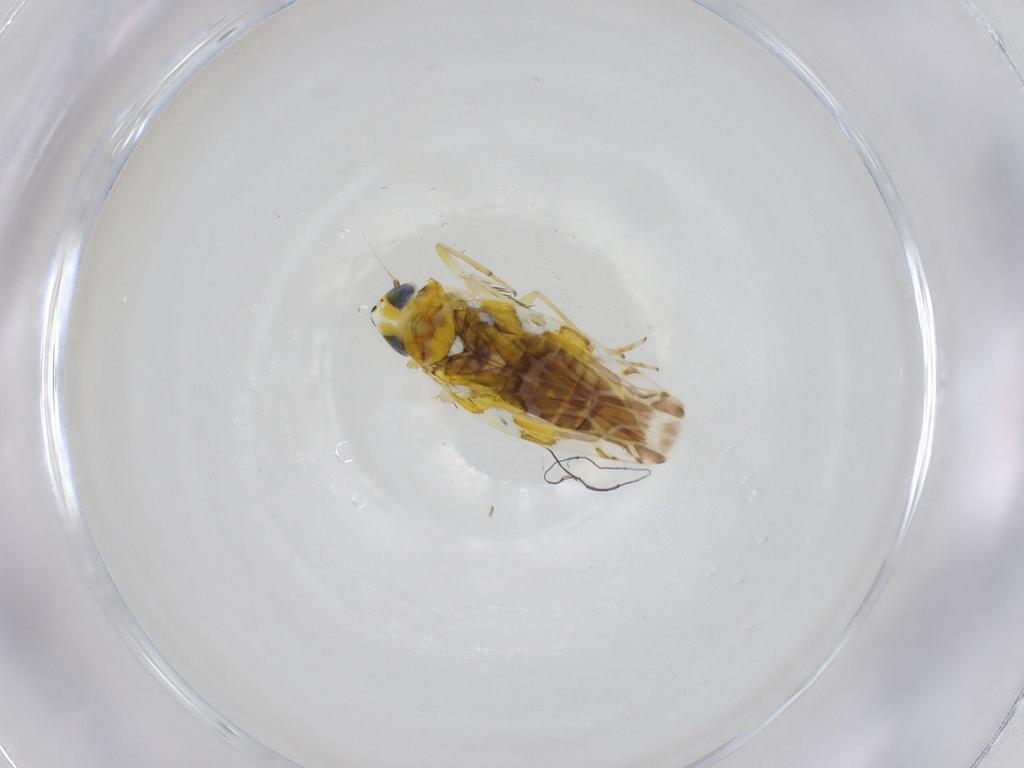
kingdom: Animalia
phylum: Arthropoda
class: Insecta
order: Hemiptera
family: Cicadellidae
